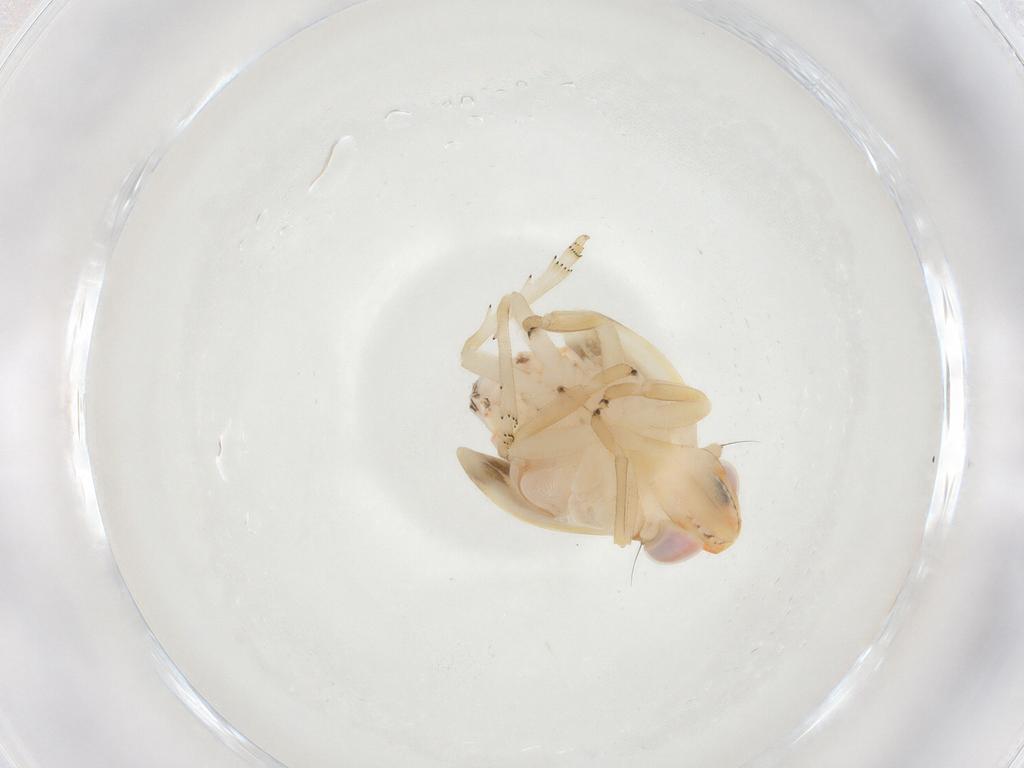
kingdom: Animalia
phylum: Arthropoda
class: Insecta
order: Hemiptera
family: Nogodinidae
